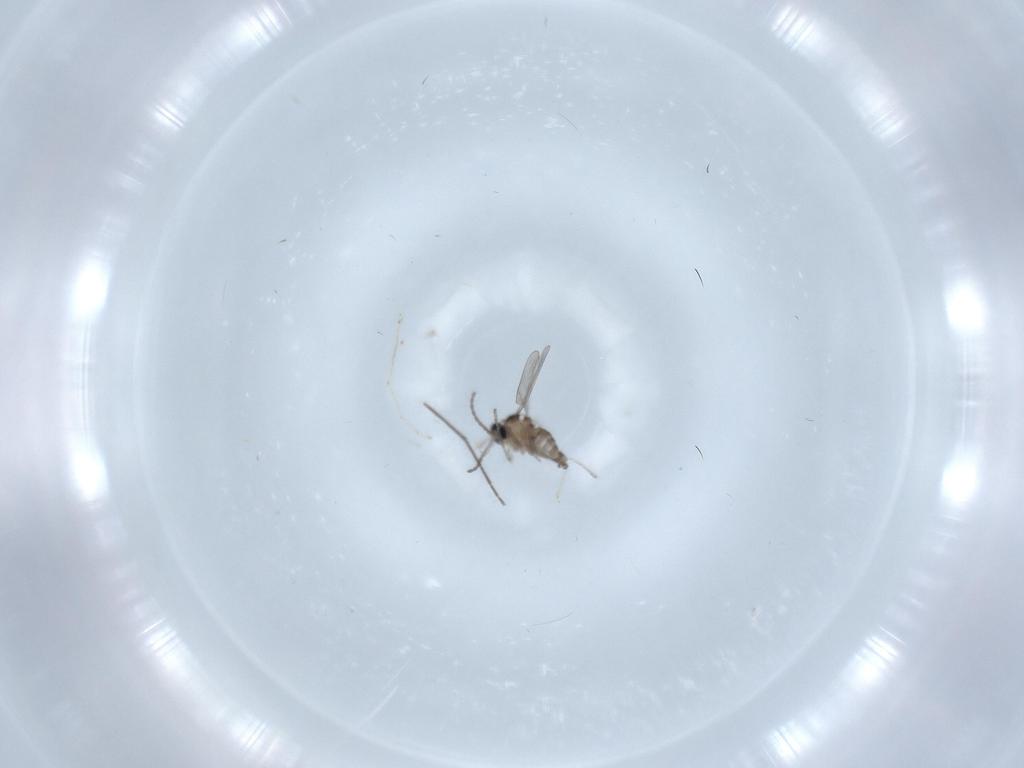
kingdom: Animalia
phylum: Arthropoda
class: Insecta
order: Diptera
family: Cecidomyiidae
